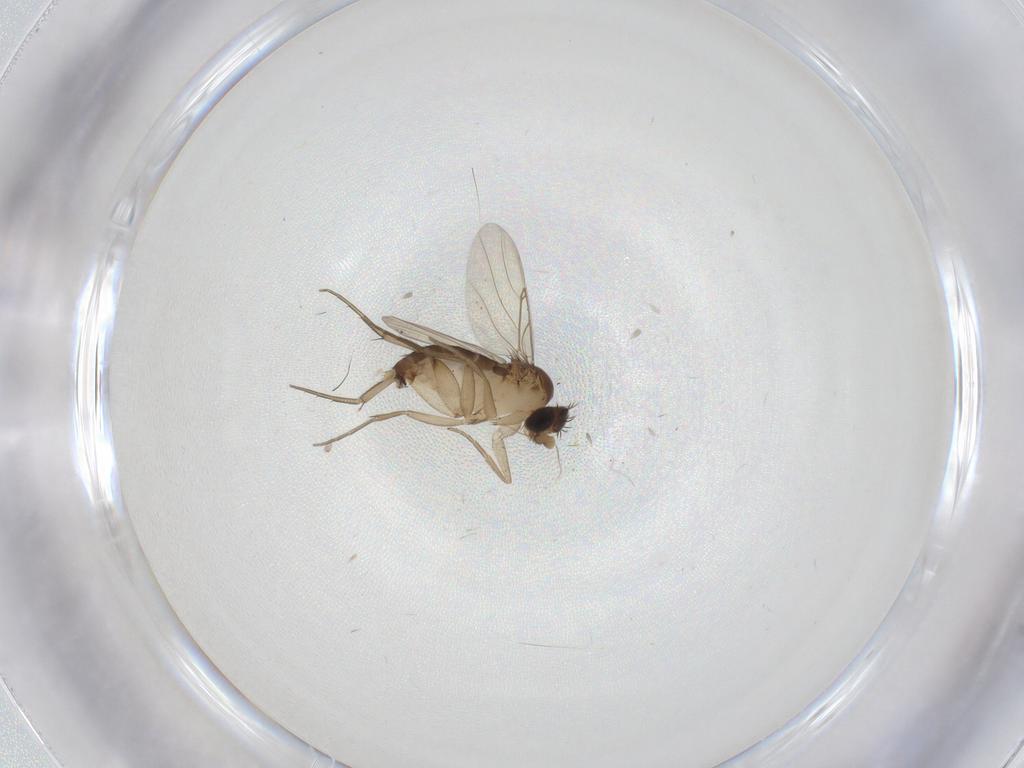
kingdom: Animalia
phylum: Arthropoda
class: Insecta
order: Diptera
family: Phoridae
